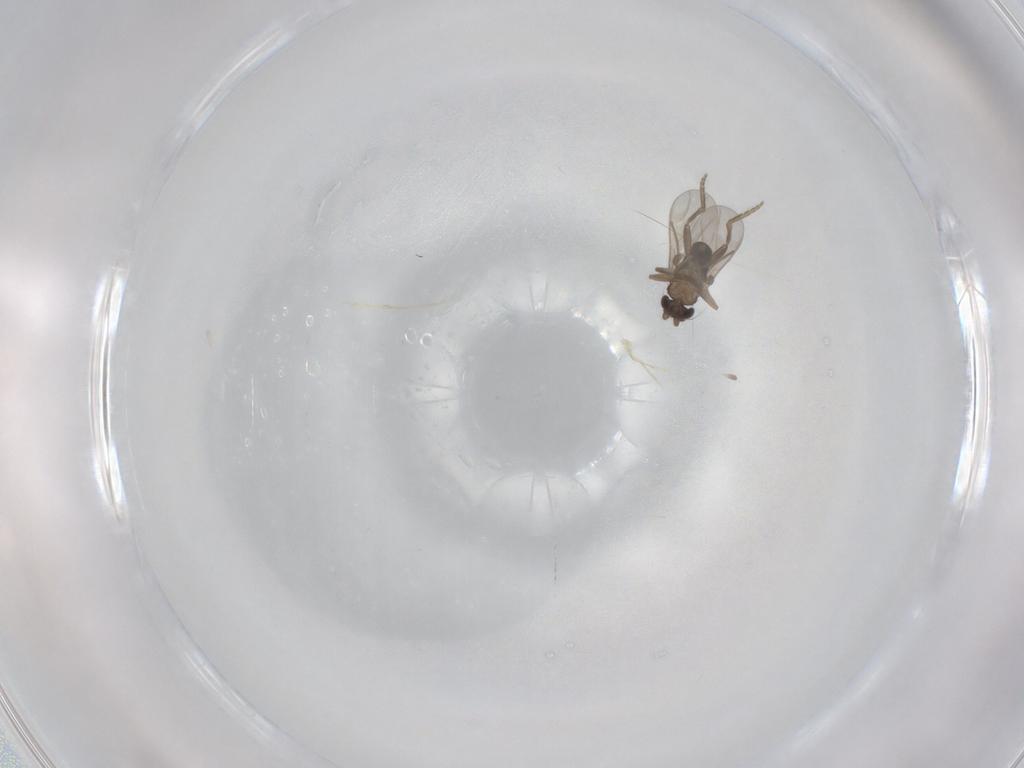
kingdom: Animalia
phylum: Arthropoda
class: Insecta
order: Diptera
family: Cecidomyiidae
